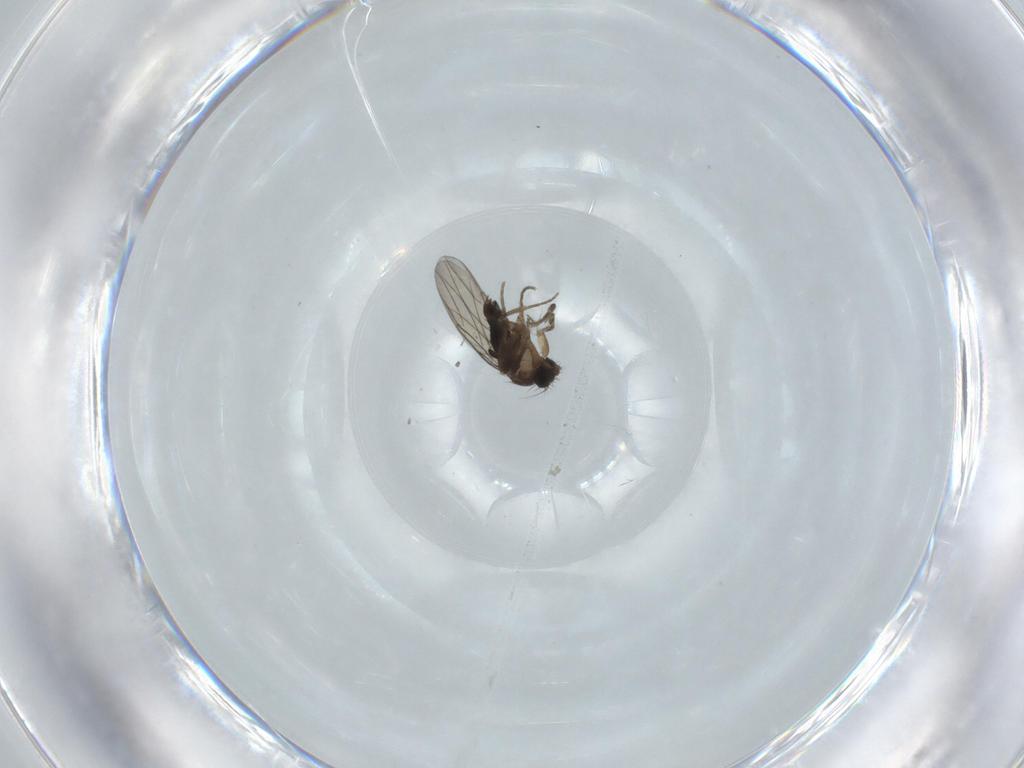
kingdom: Animalia
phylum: Arthropoda
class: Insecta
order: Diptera
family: Phoridae
